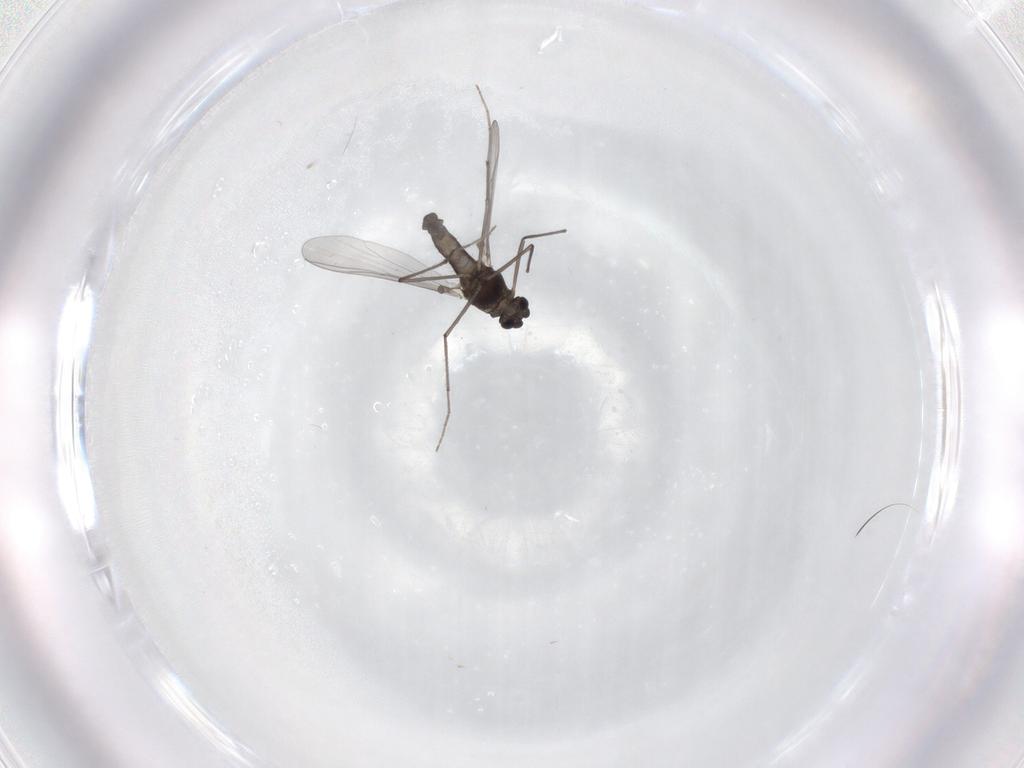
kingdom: Animalia
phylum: Arthropoda
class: Insecta
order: Diptera
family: Chironomidae
